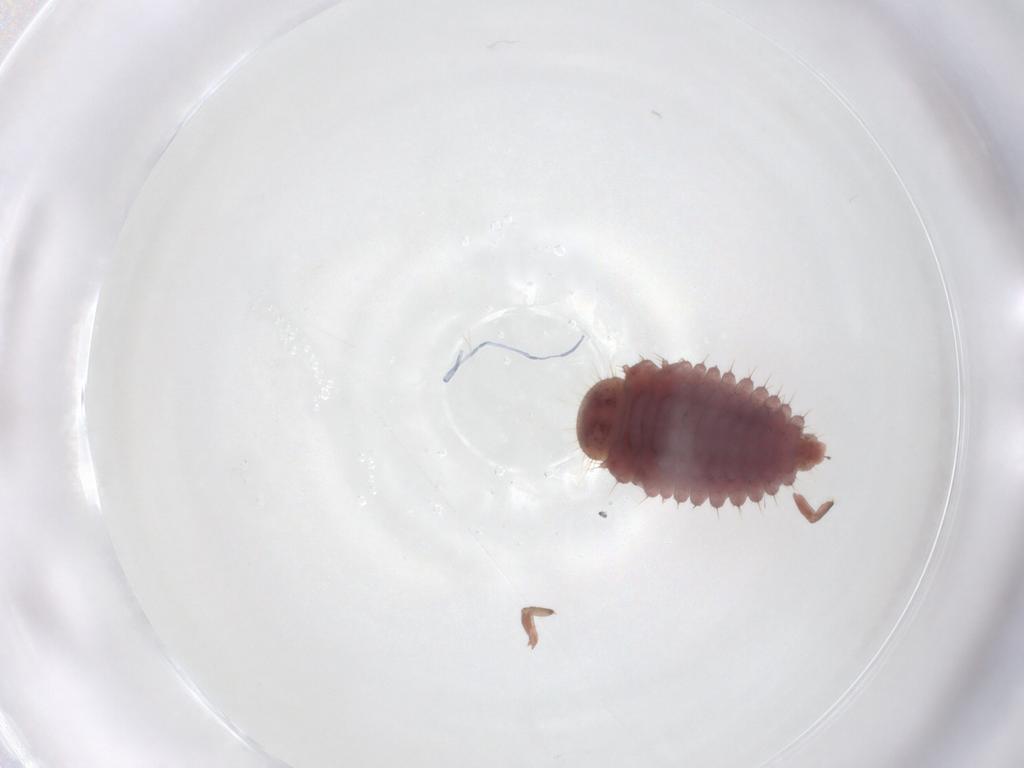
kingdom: Animalia
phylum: Arthropoda
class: Insecta
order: Coleoptera
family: Coccinellidae
